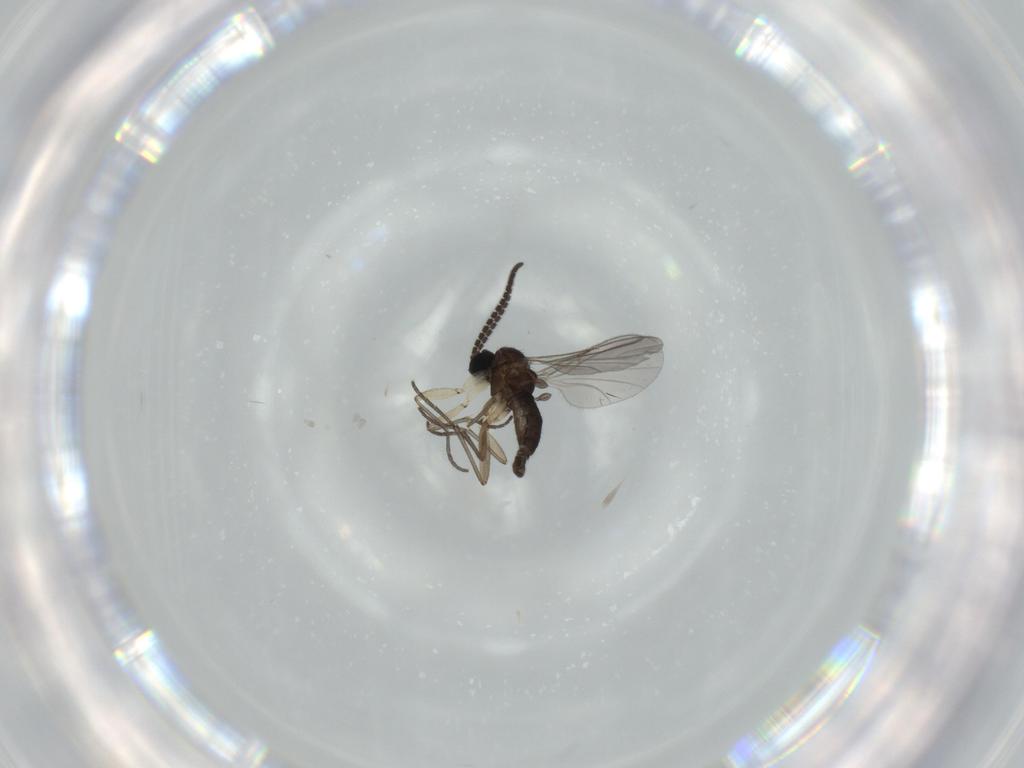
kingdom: Animalia
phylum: Arthropoda
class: Insecta
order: Diptera
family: Sciaridae
